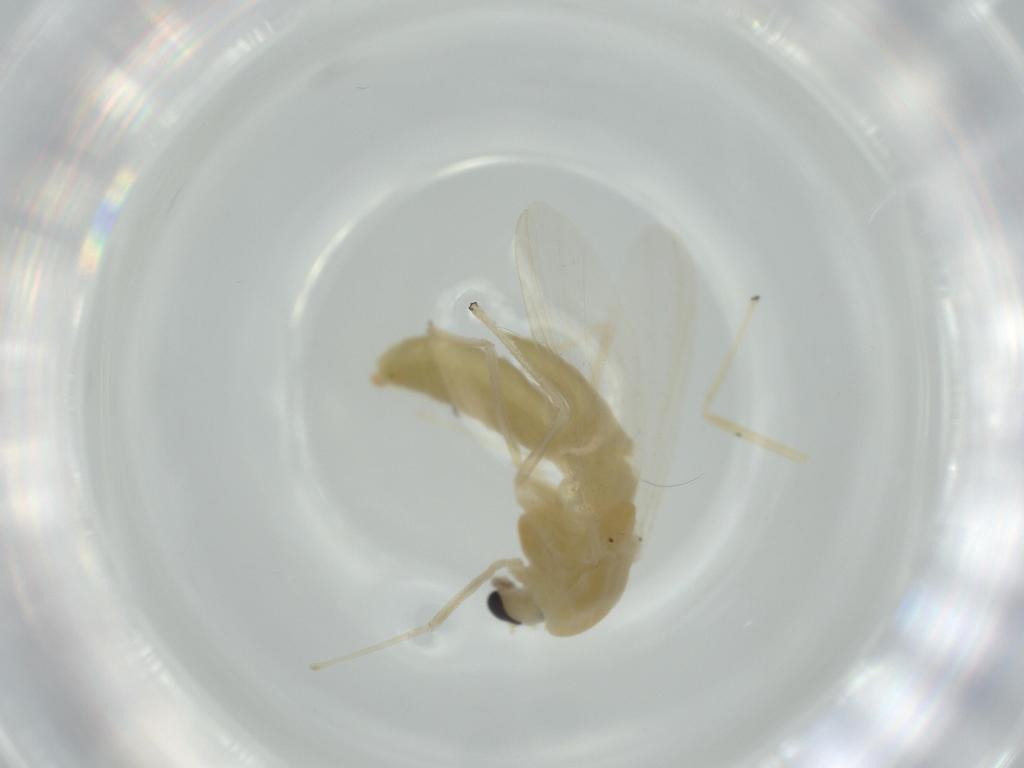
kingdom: Animalia
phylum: Arthropoda
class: Insecta
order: Diptera
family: Chironomidae
